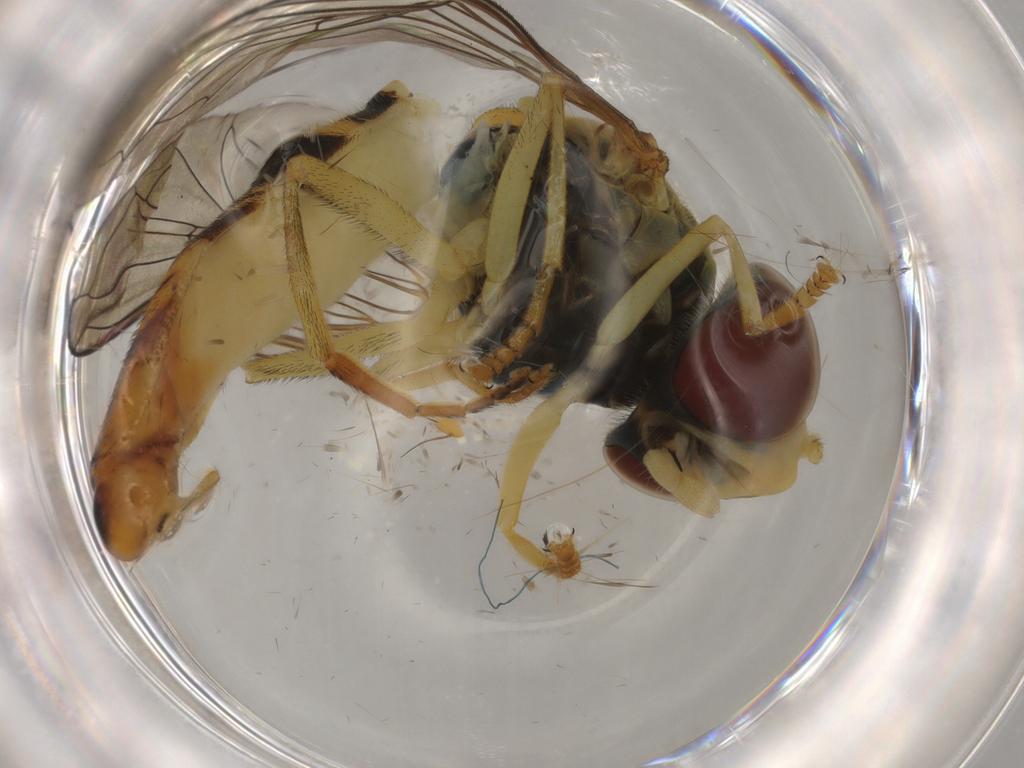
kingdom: Animalia
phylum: Arthropoda
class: Insecta
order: Diptera
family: Syrphidae
